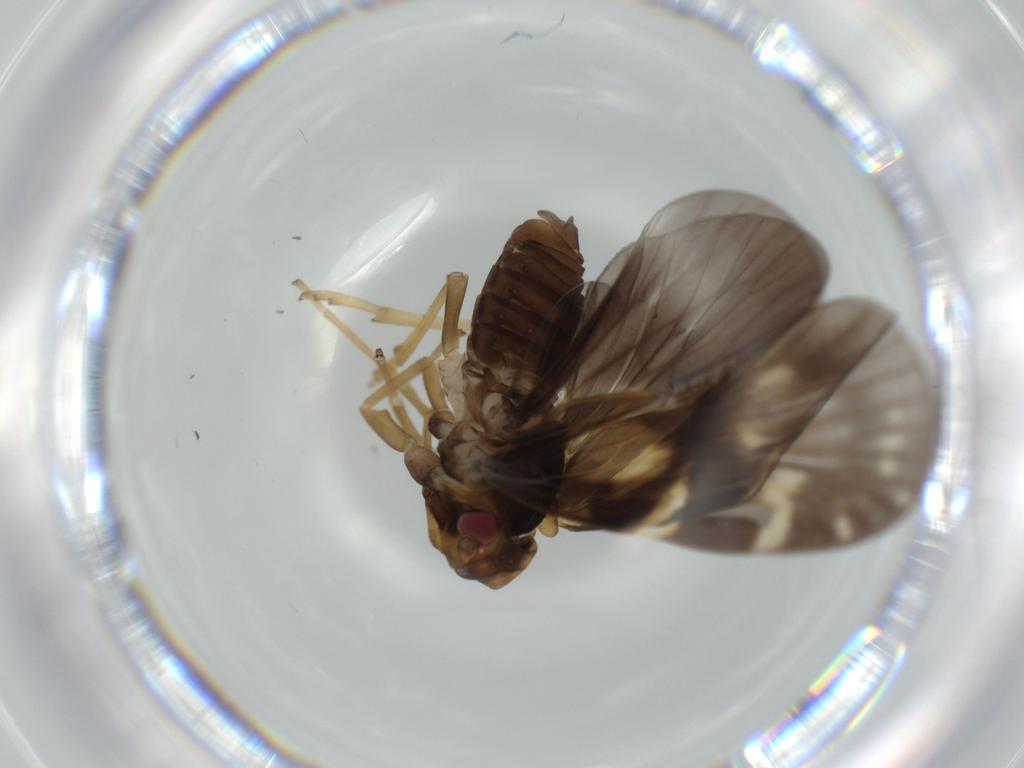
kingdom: Animalia
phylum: Arthropoda
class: Insecta
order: Hemiptera
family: Cixiidae
